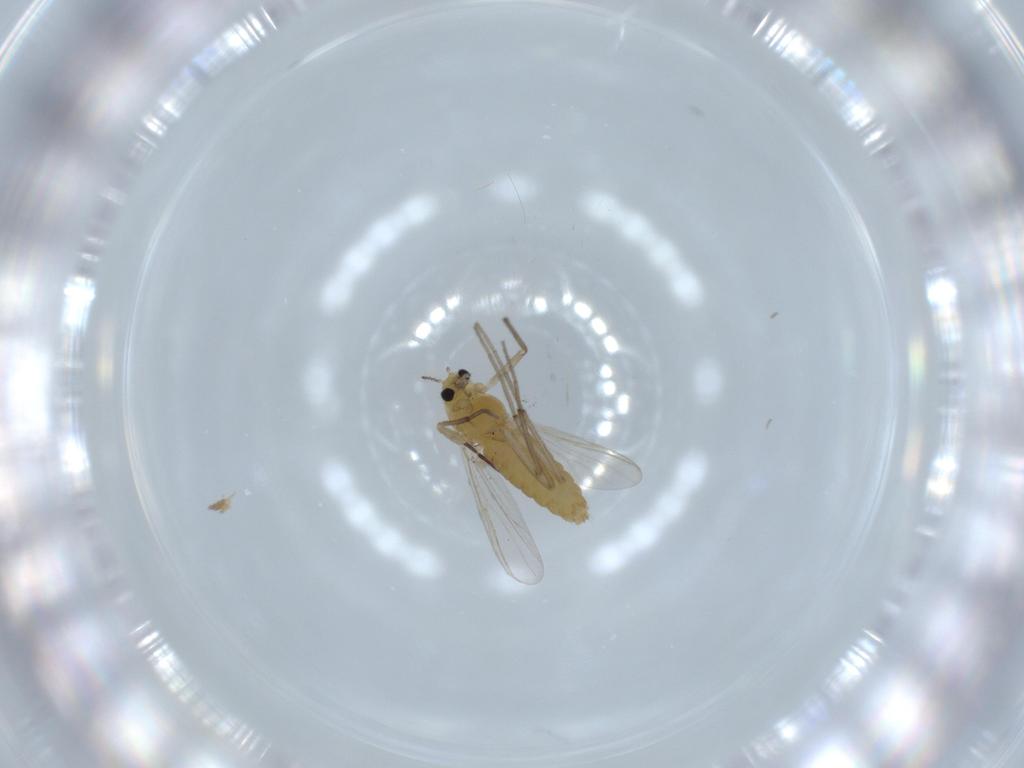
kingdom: Animalia
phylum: Arthropoda
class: Insecta
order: Diptera
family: Chironomidae
